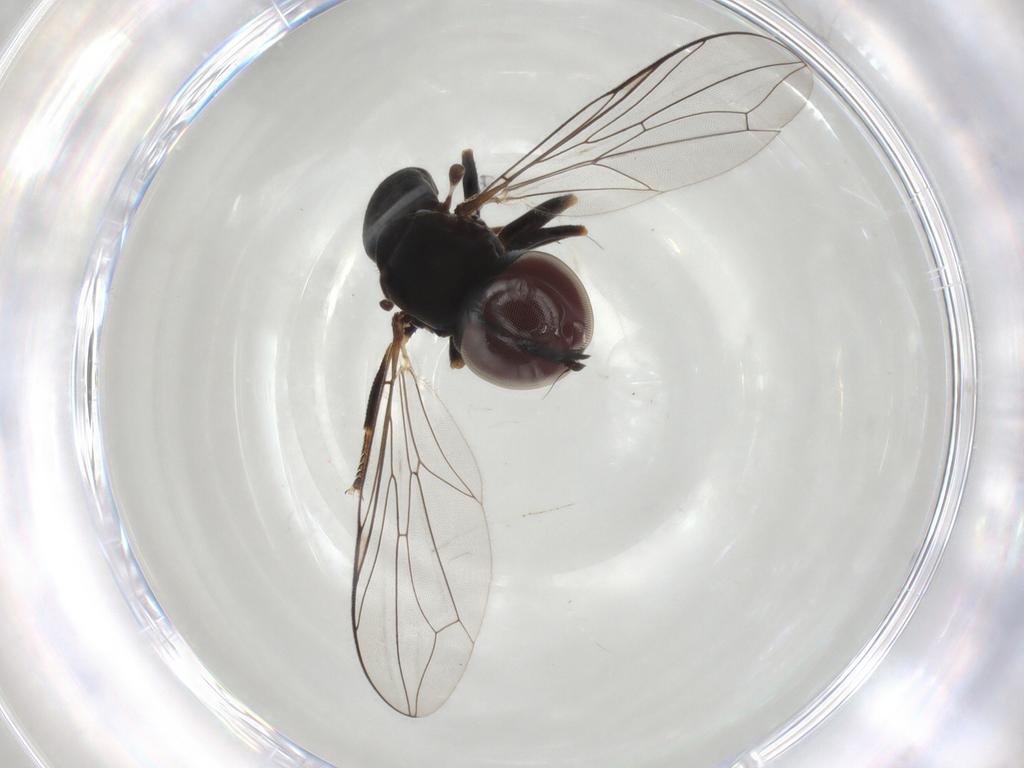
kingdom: Animalia
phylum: Arthropoda
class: Insecta
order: Diptera
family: Pipunculidae
